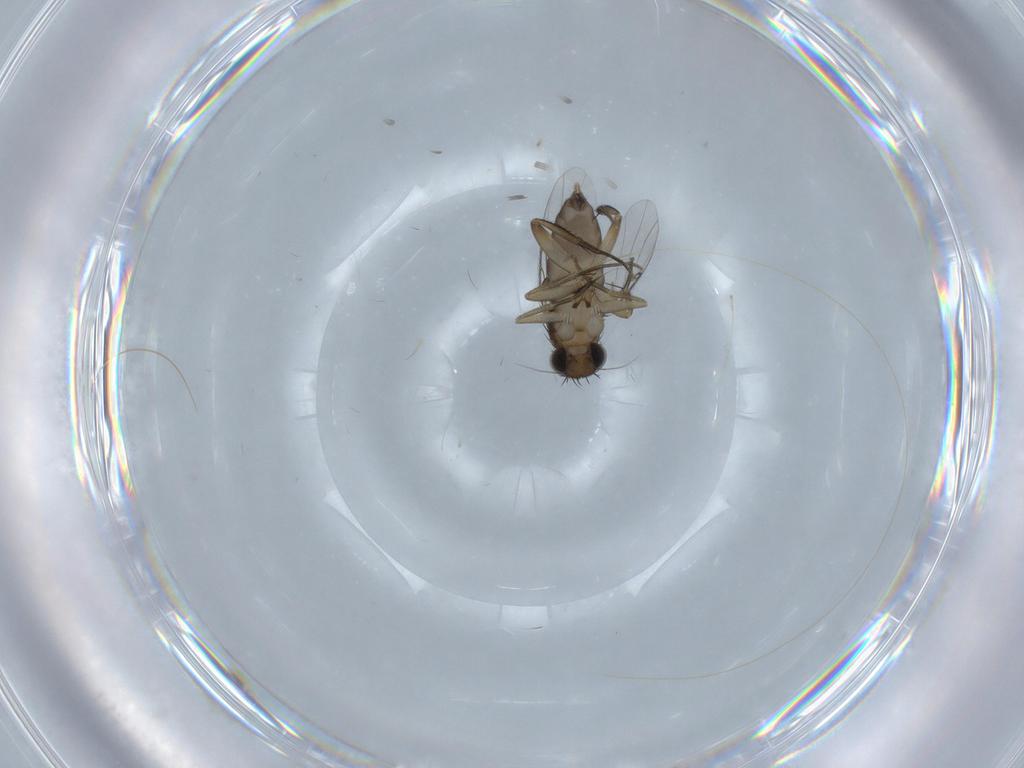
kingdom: Animalia
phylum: Arthropoda
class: Insecta
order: Diptera
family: Phoridae
